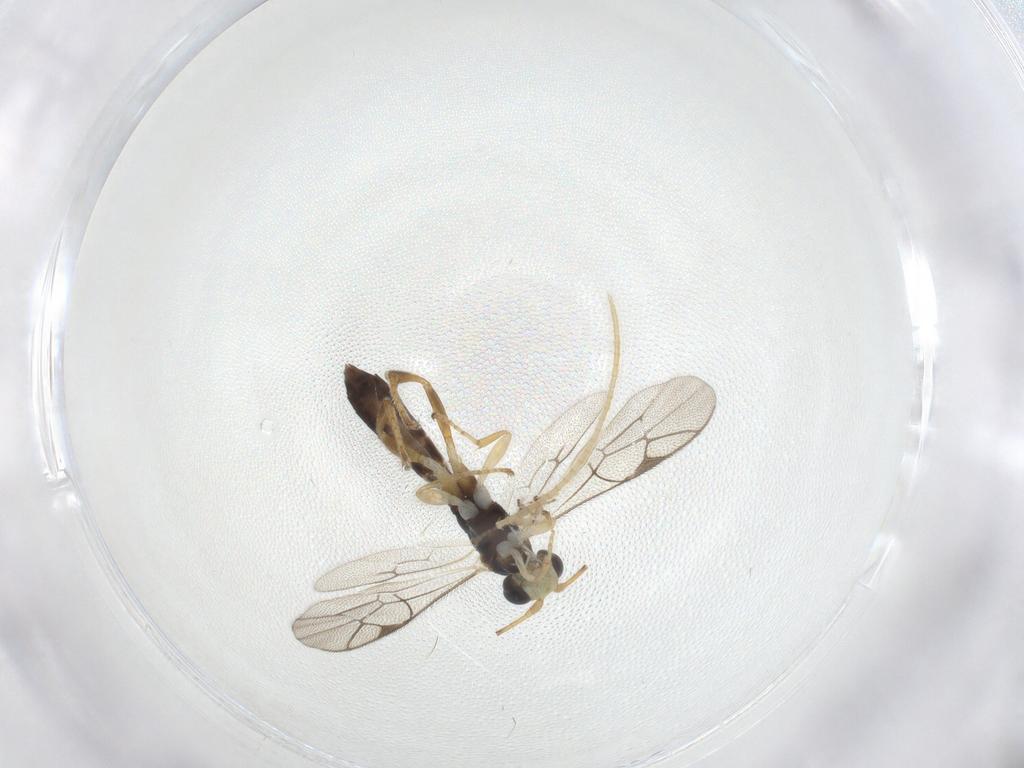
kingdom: Animalia
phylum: Arthropoda
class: Insecta
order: Hymenoptera
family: Ichneumonidae
